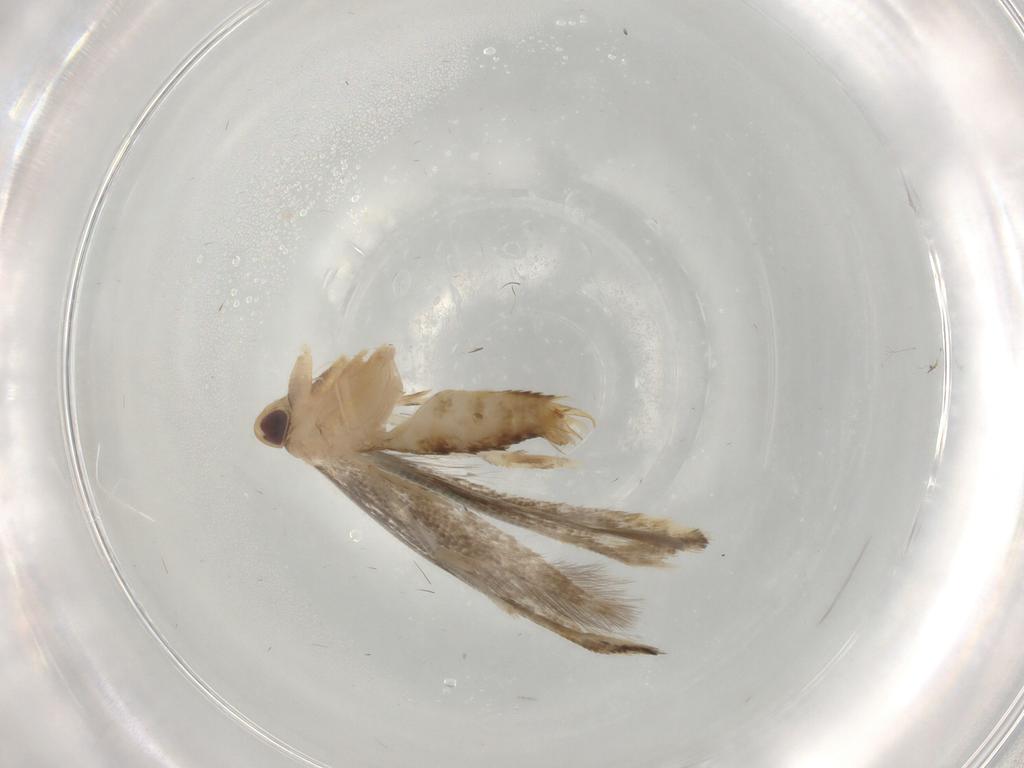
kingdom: Animalia
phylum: Arthropoda
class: Insecta
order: Lepidoptera
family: Momphidae
